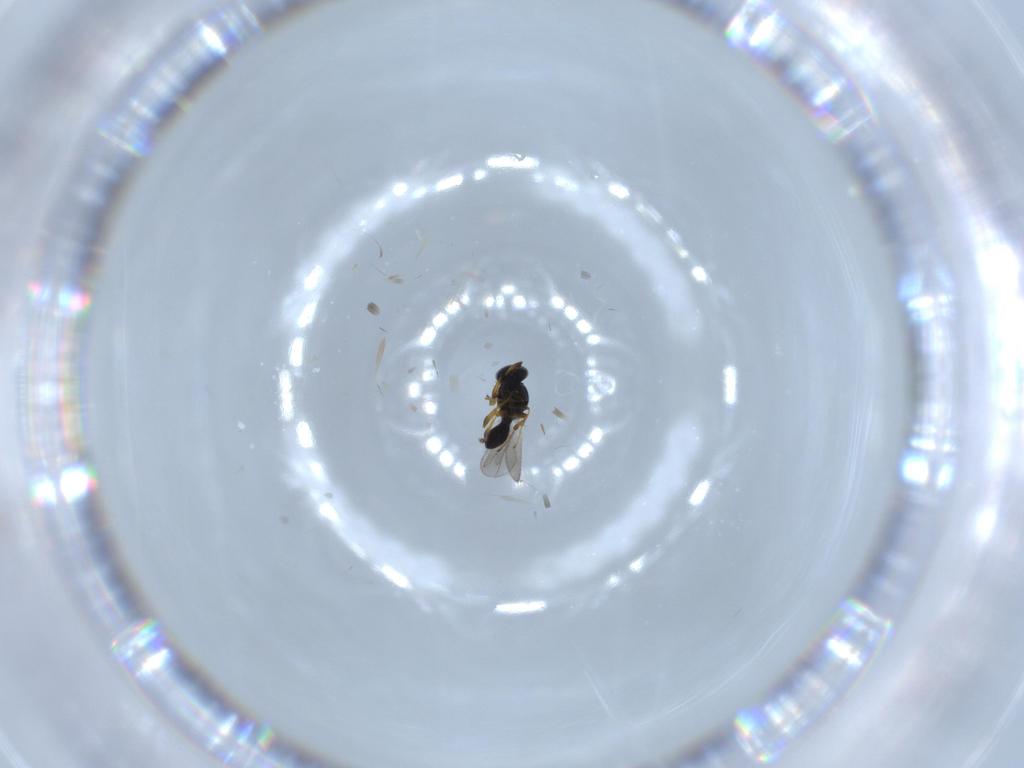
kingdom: Animalia
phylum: Arthropoda
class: Insecta
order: Hymenoptera
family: Platygastridae
